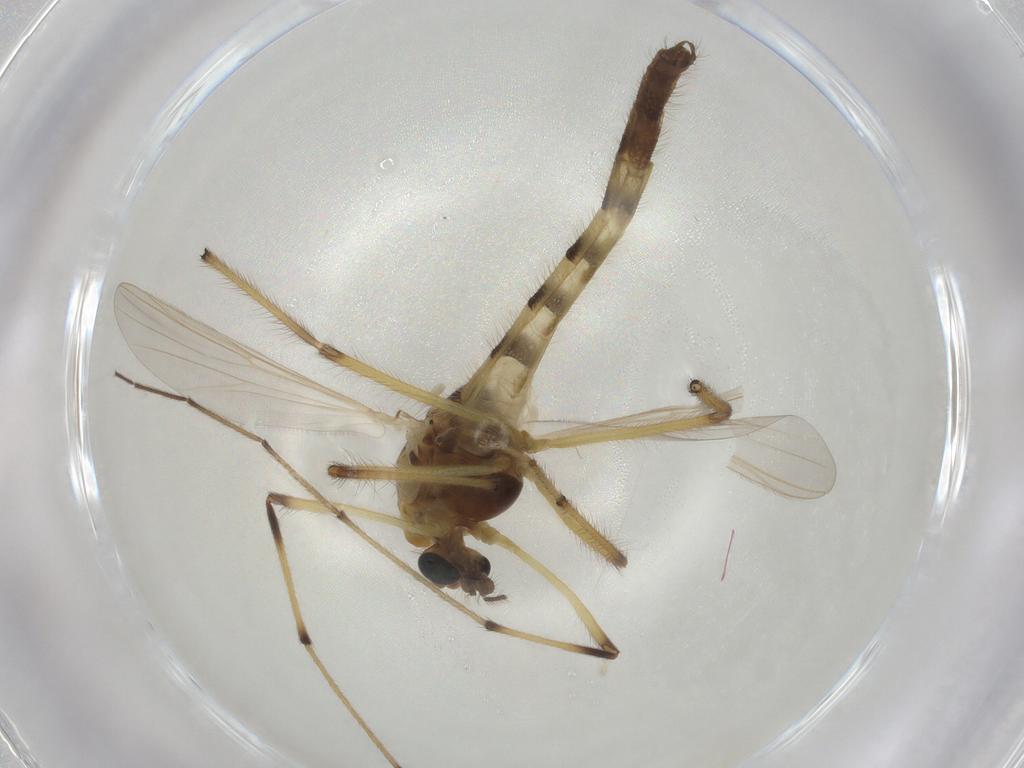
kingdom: Animalia
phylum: Arthropoda
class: Insecta
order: Diptera
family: Chironomidae
